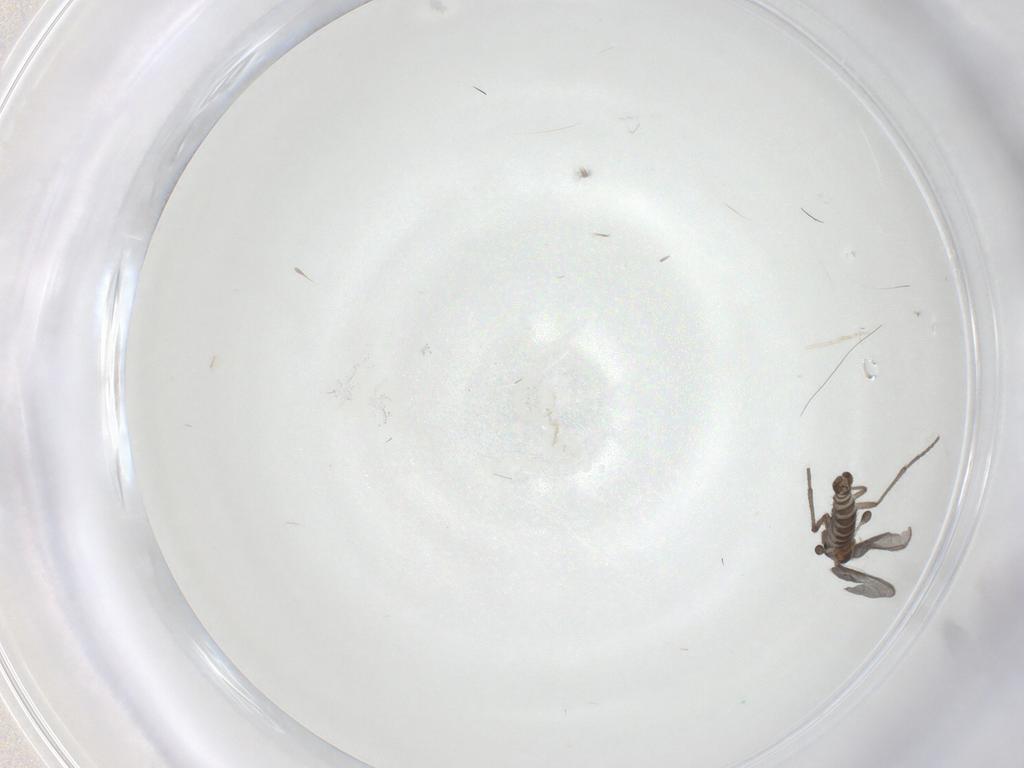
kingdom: Animalia
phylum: Arthropoda
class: Insecta
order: Diptera
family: Sciaridae
